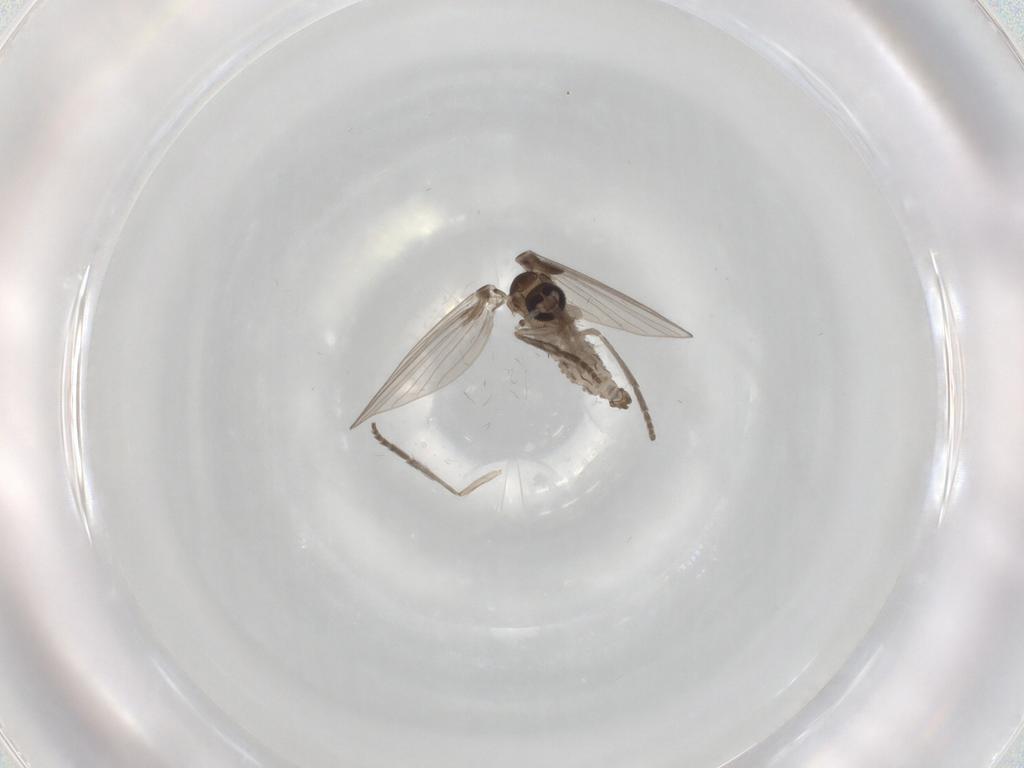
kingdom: Animalia
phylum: Arthropoda
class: Insecta
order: Diptera
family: Psychodidae
